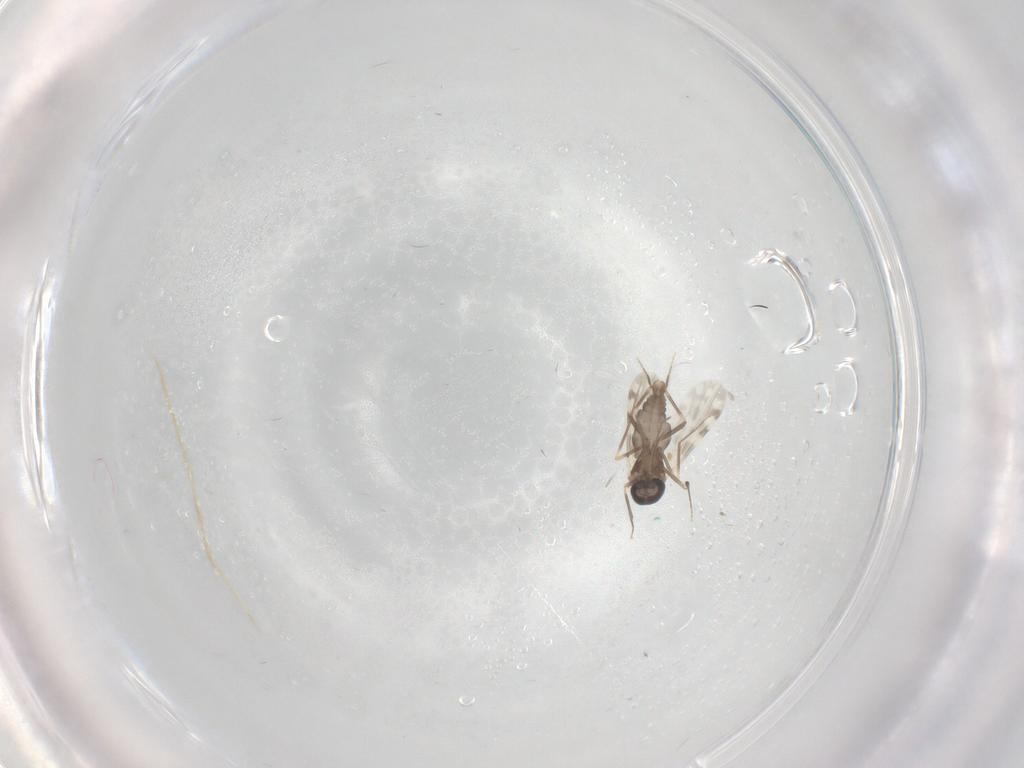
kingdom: Animalia
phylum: Arthropoda
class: Insecta
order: Diptera
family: Ceratopogonidae
